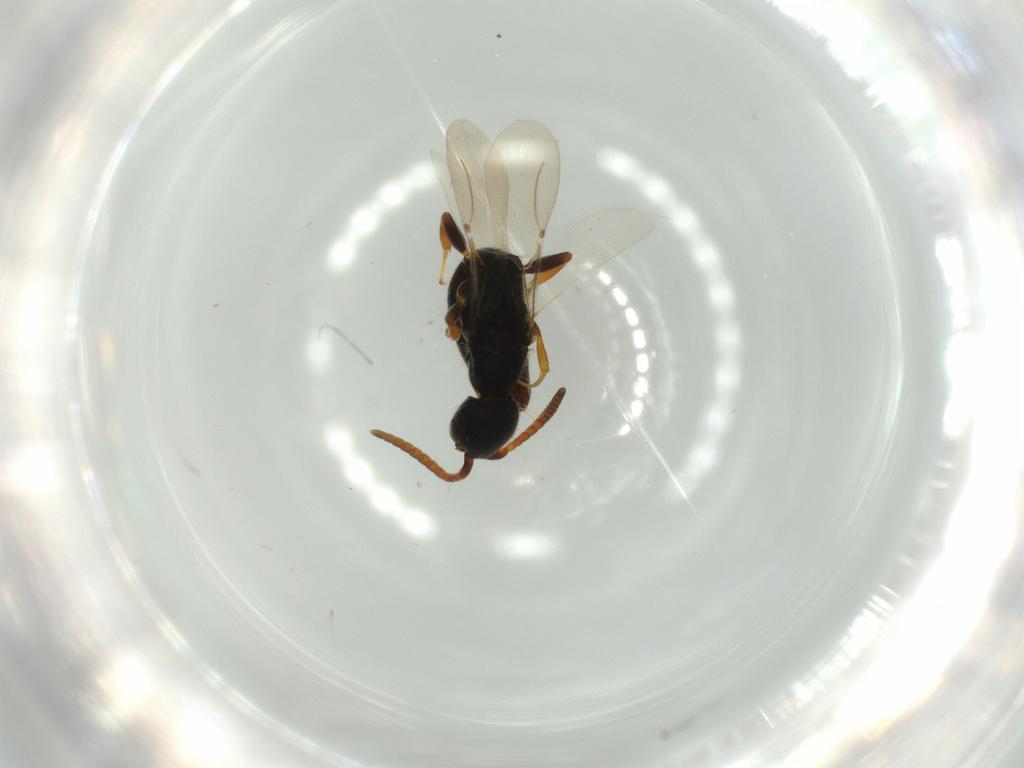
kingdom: Animalia
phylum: Arthropoda
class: Insecta
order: Hymenoptera
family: Bethylidae
